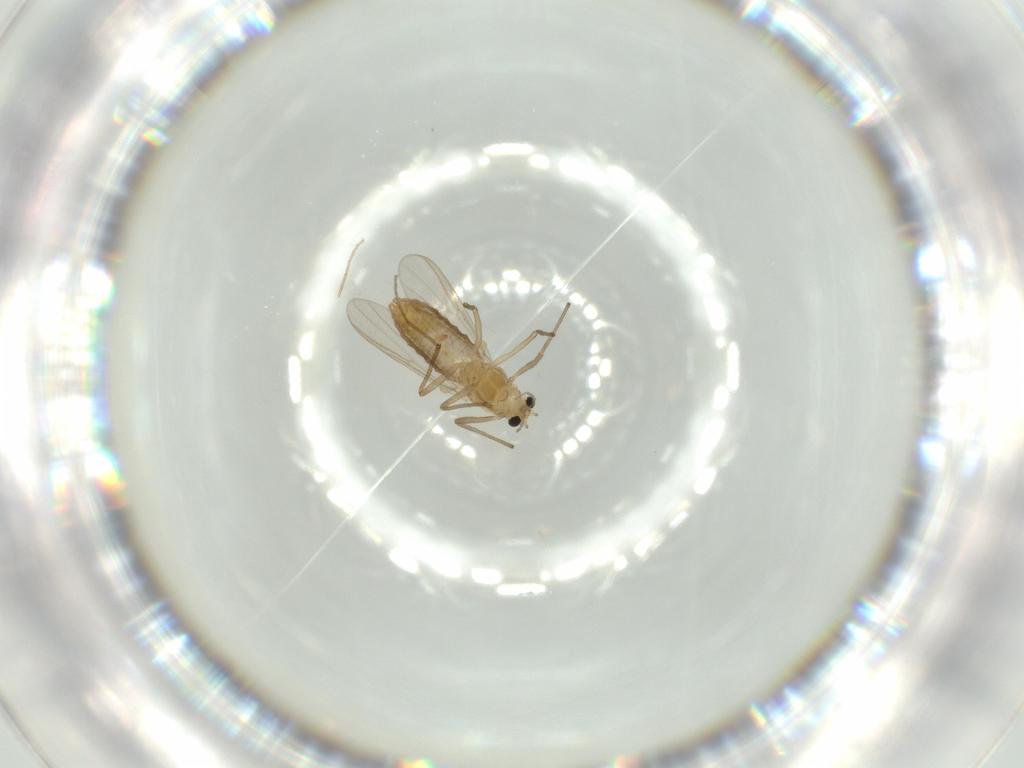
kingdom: Animalia
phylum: Arthropoda
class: Insecta
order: Diptera
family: Chironomidae
